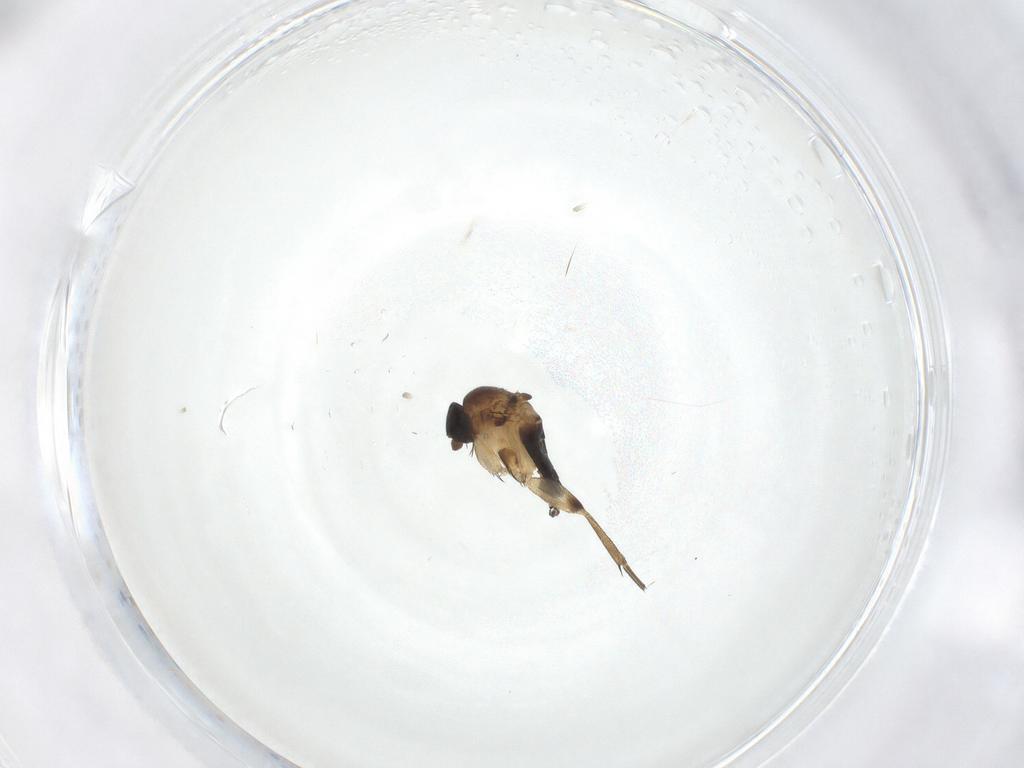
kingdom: Animalia
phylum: Arthropoda
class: Insecta
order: Diptera
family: Phoridae
